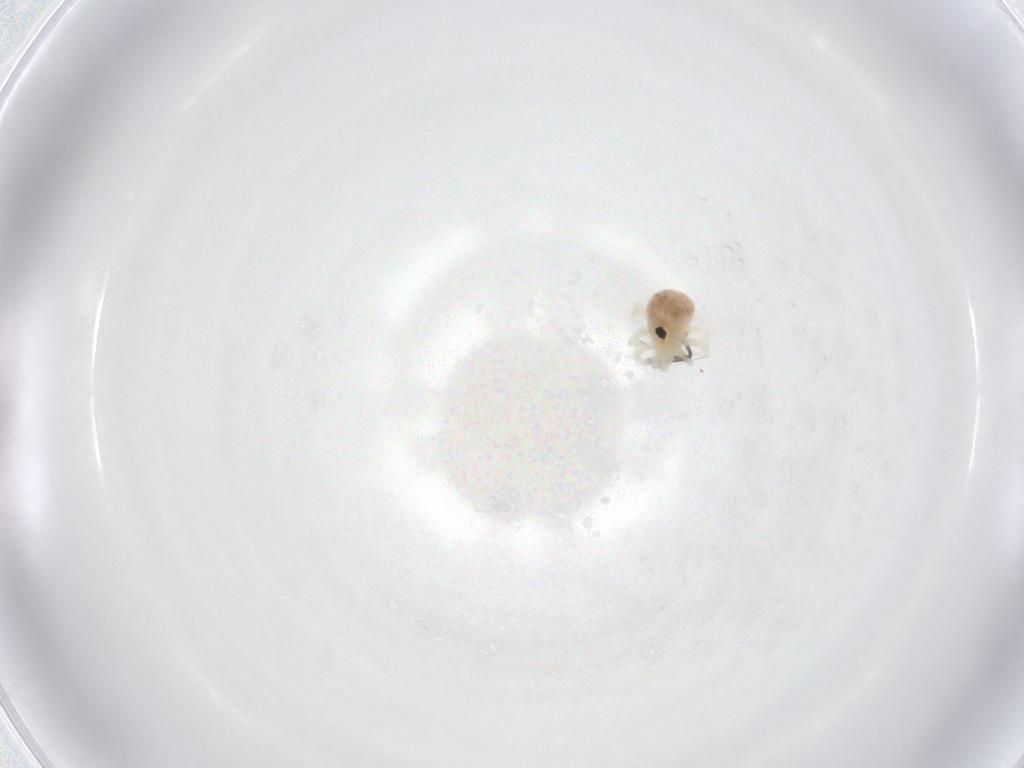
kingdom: Animalia
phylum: Arthropoda
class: Arachnida
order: Trombidiformes
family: Anystidae
